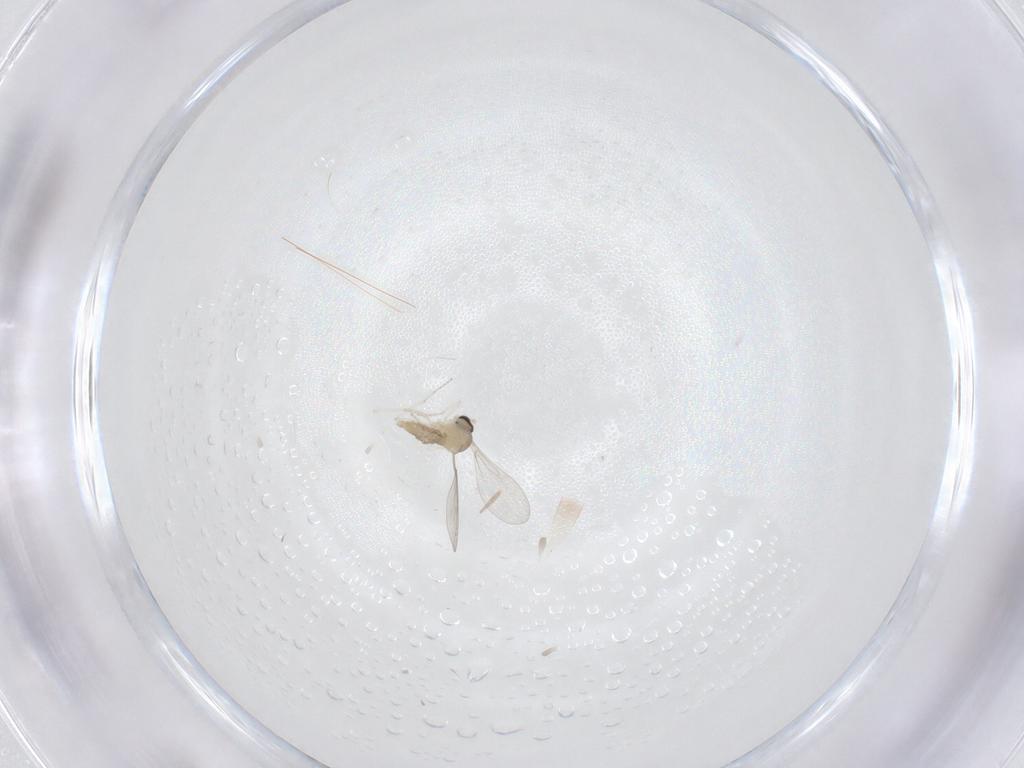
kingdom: Animalia
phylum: Arthropoda
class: Insecta
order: Diptera
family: Cecidomyiidae
